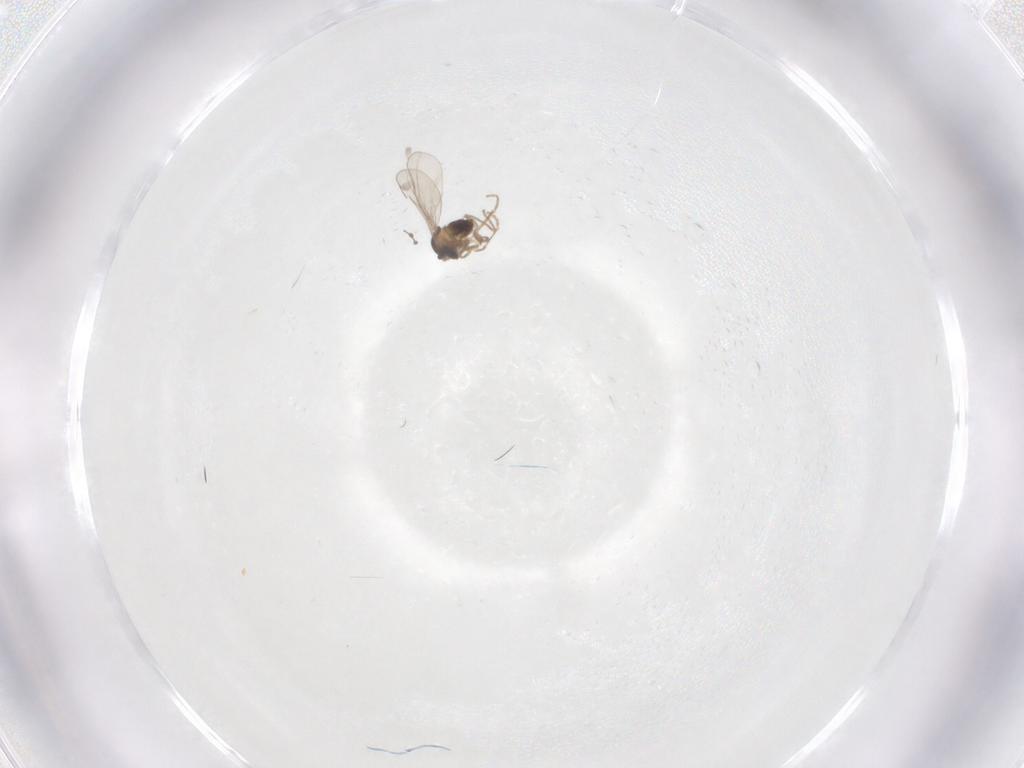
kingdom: Animalia
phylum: Arthropoda
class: Insecta
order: Diptera
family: Cecidomyiidae
